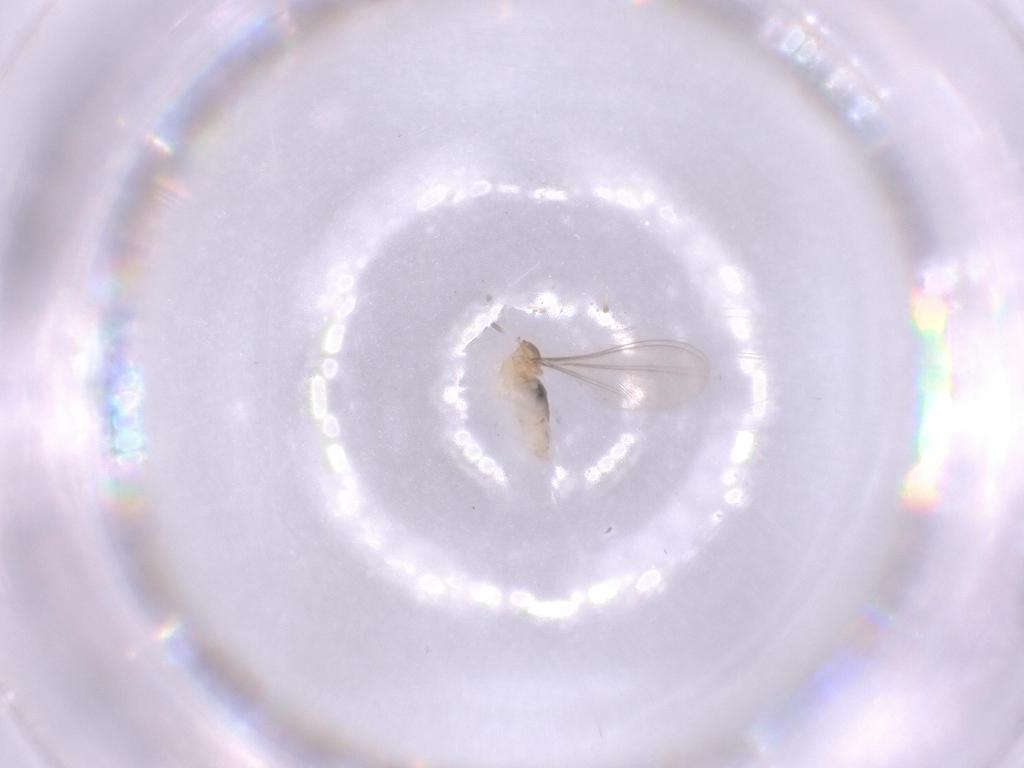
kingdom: Animalia
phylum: Arthropoda
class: Insecta
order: Diptera
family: Cecidomyiidae
